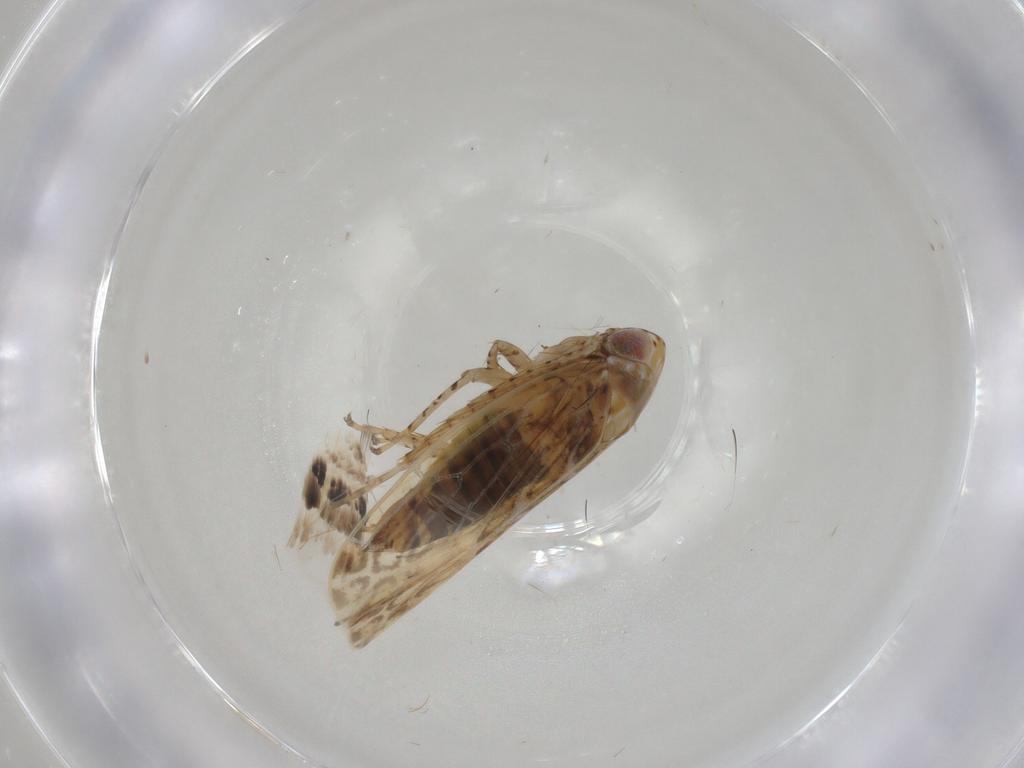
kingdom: Animalia
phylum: Arthropoda
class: Insecta
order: Hemiptera
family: Cicadellidae
